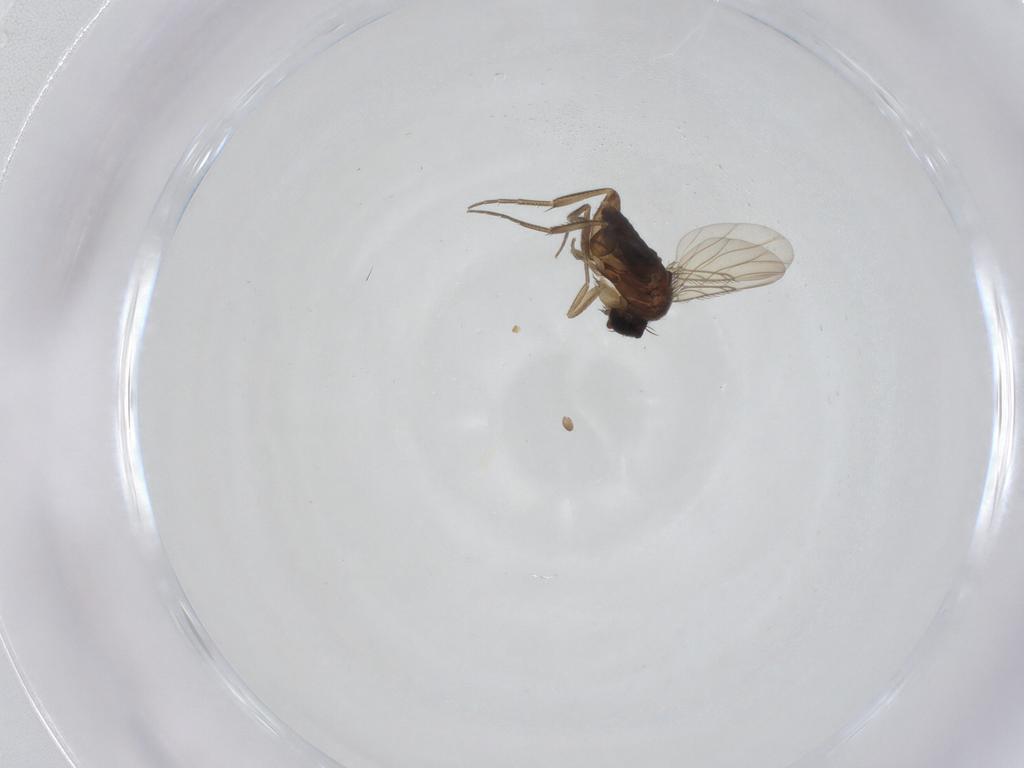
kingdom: Animalia
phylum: Arthropoda
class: Insecta
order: Diptera
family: Phoridae
